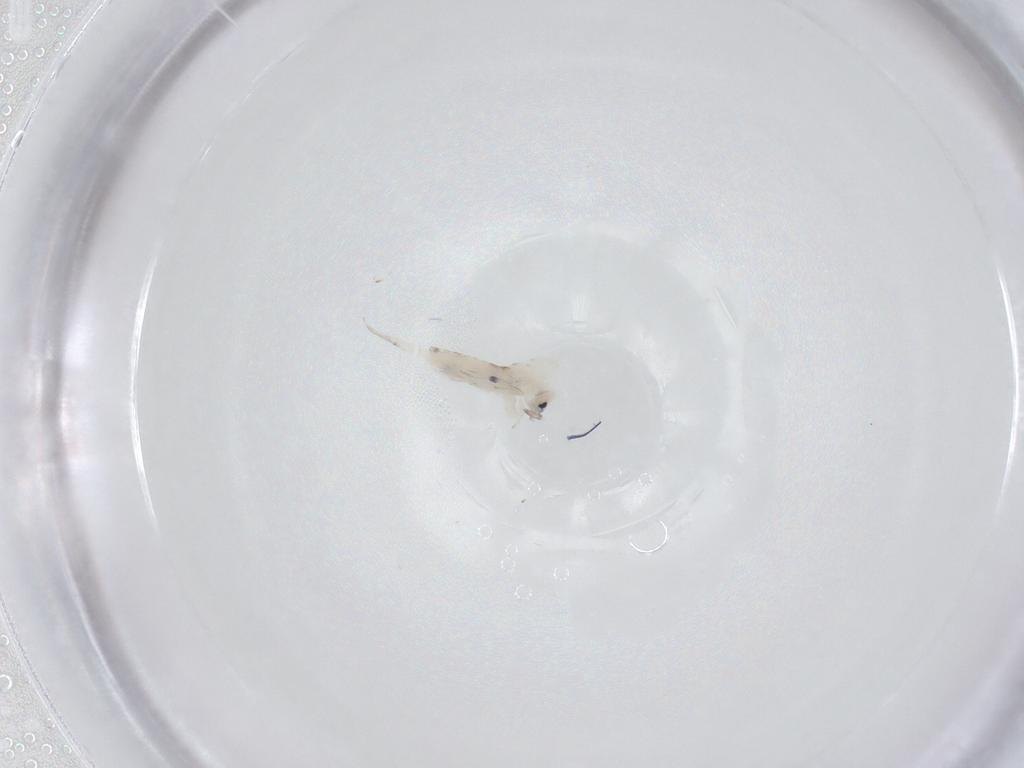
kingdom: Animalia
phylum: Arthropoda
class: Collembola
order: Entomobryomorpha
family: Entomobryidae
